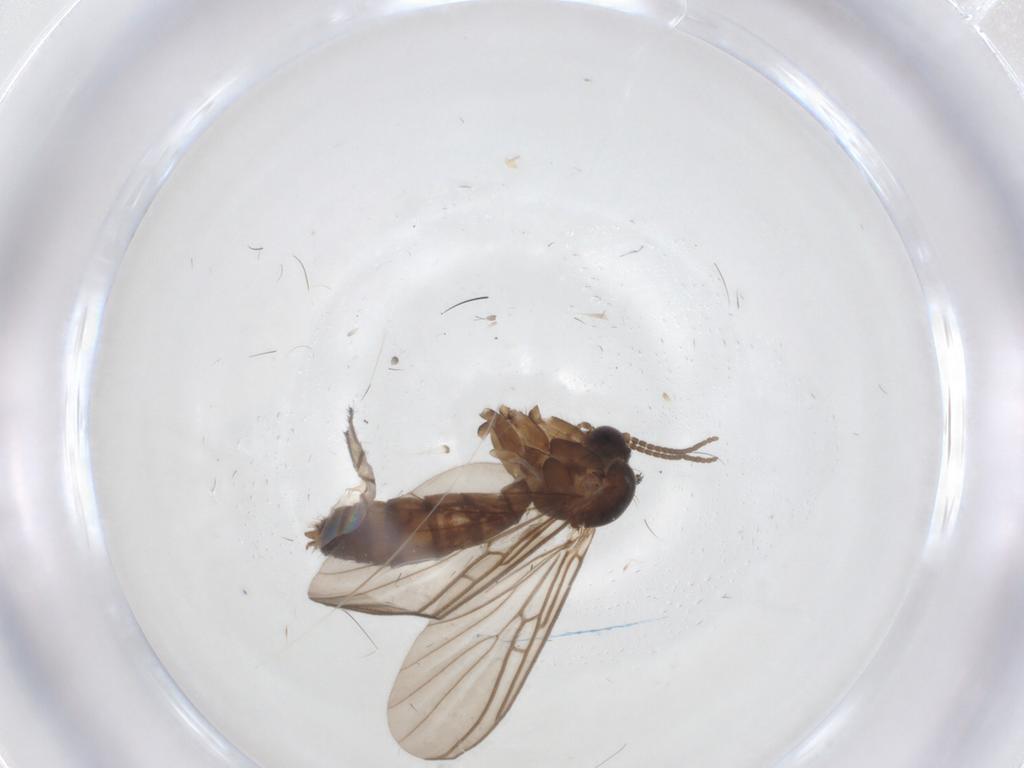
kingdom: Animalia
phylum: Arthropoda
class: Insecta
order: Diptera
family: Mycetophilidae
